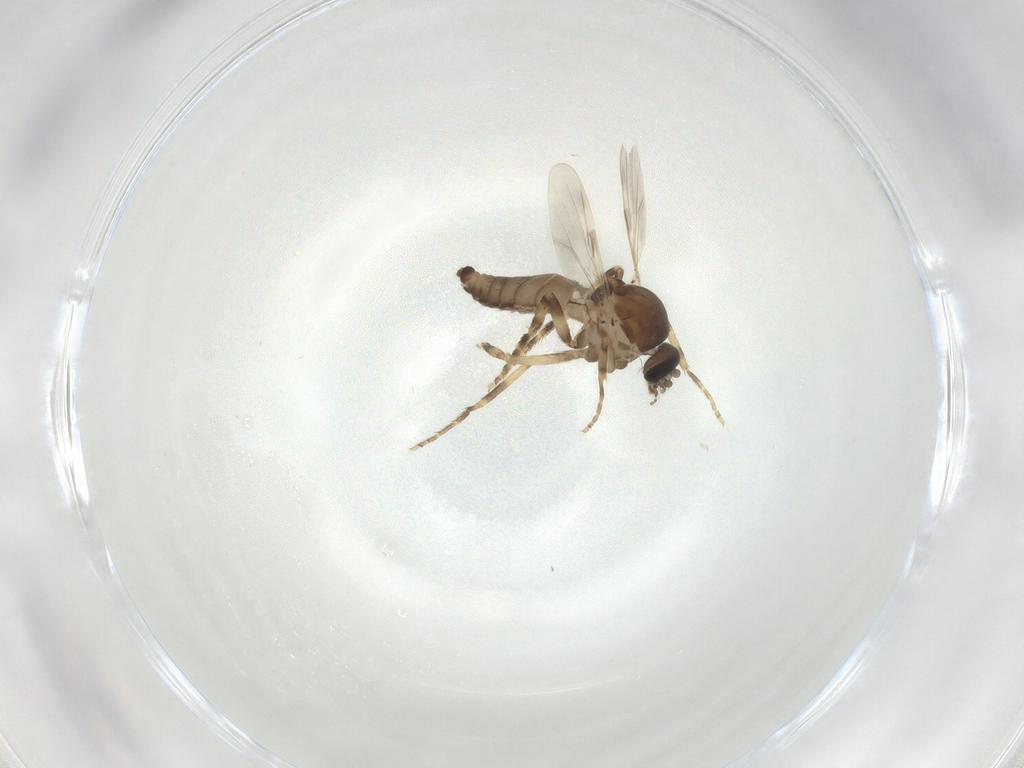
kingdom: Animalia
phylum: Arthropoda
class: Insecta
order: Diptera
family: Ceratopogonidae
